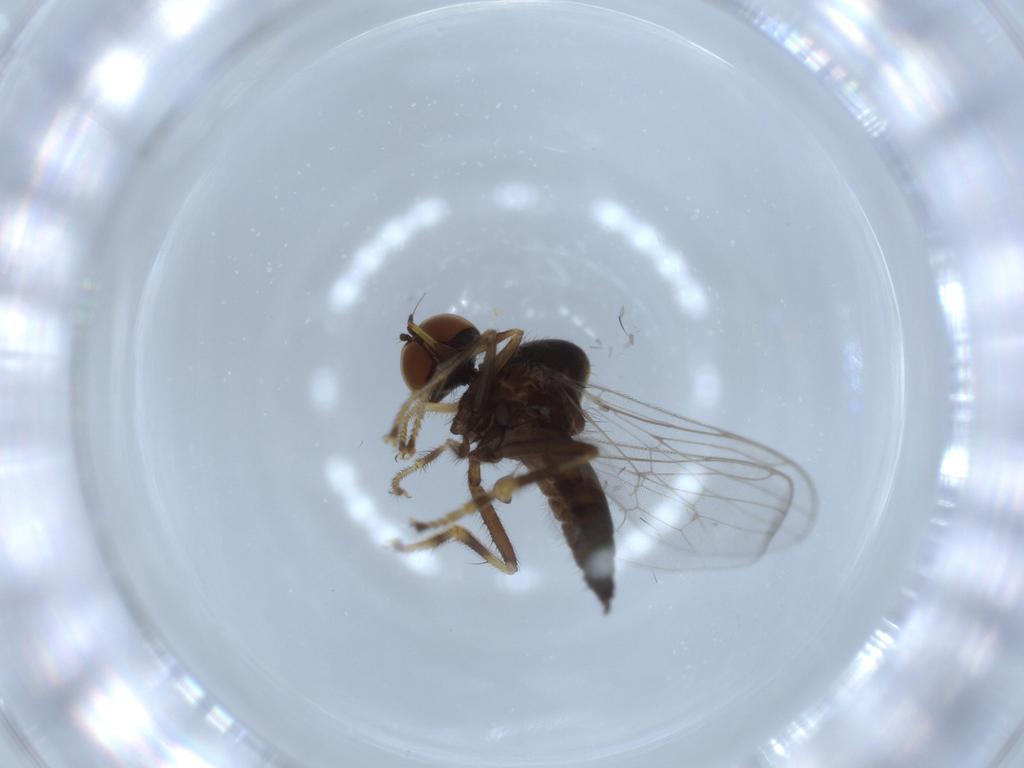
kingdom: Animalia
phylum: Arthropoda
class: Insecta
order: Diptera
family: Hybotidae
